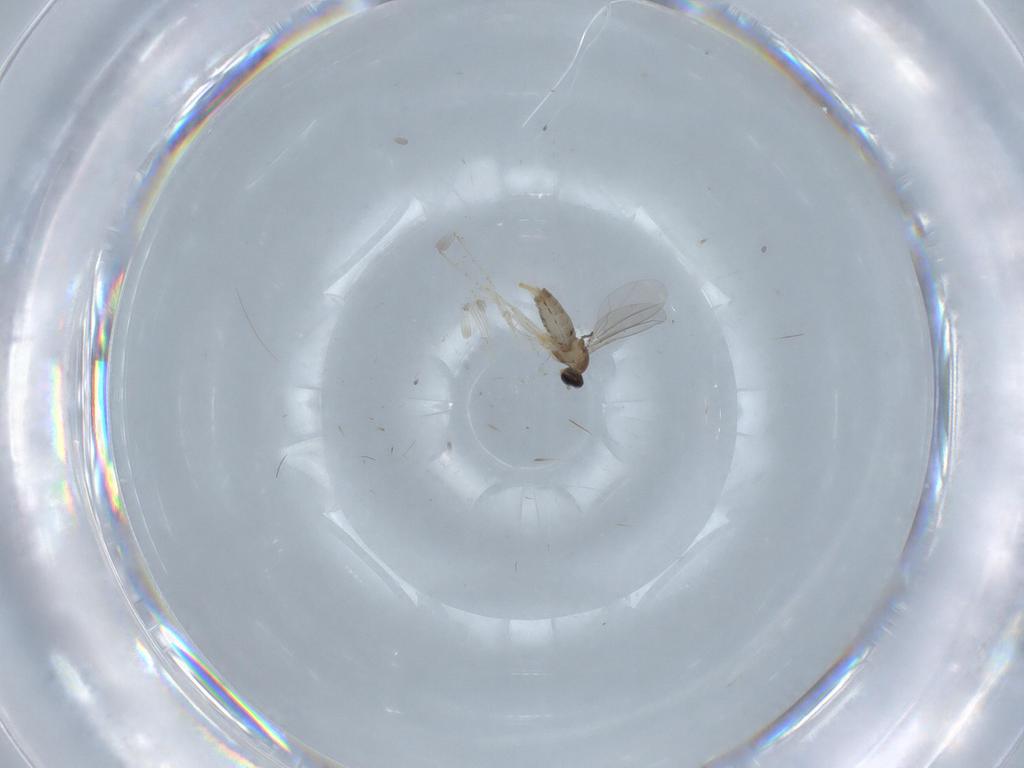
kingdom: Animalia
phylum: Arthropoda
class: Insecta
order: Diptera
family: Cecidomyiidae
